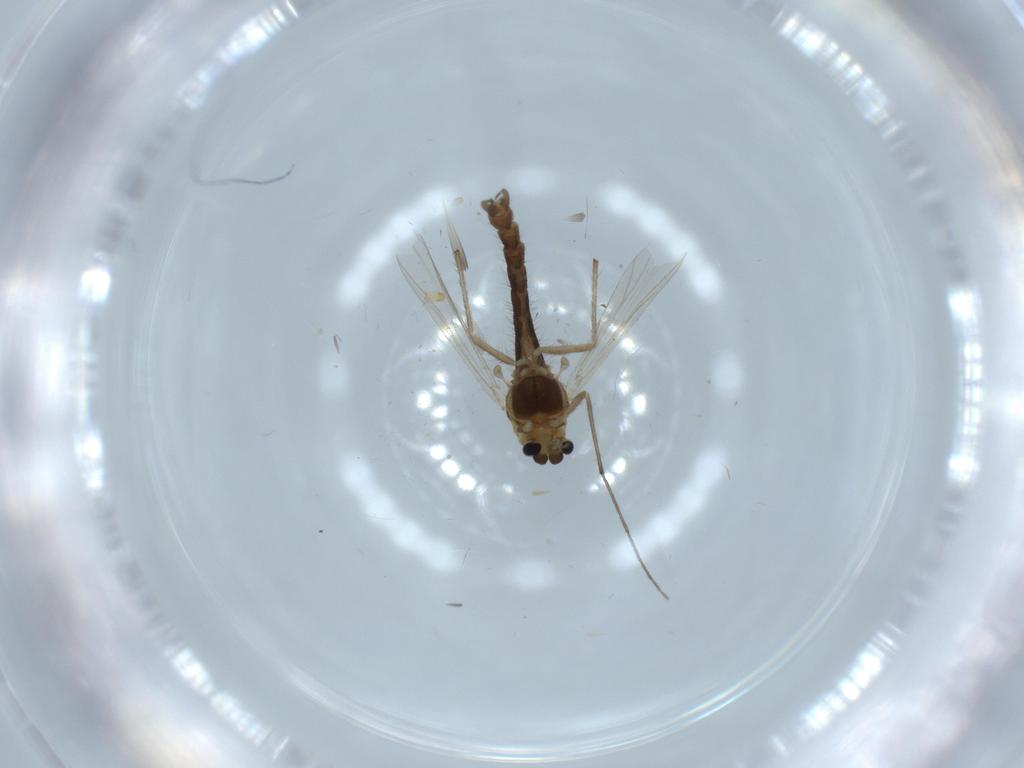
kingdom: Animalia
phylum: Arthropoda
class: Insecta
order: Diptera
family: Chironomidae
